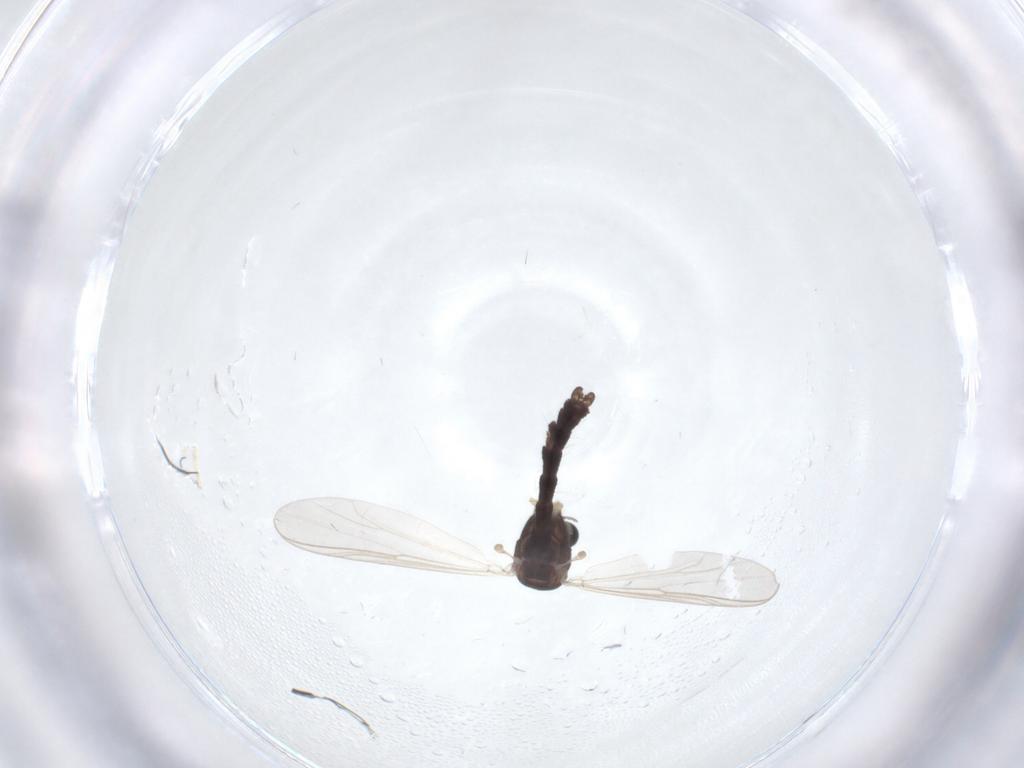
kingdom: Animalia
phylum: Arthropoda
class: Insecta
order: Diptera
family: Chironomidae
